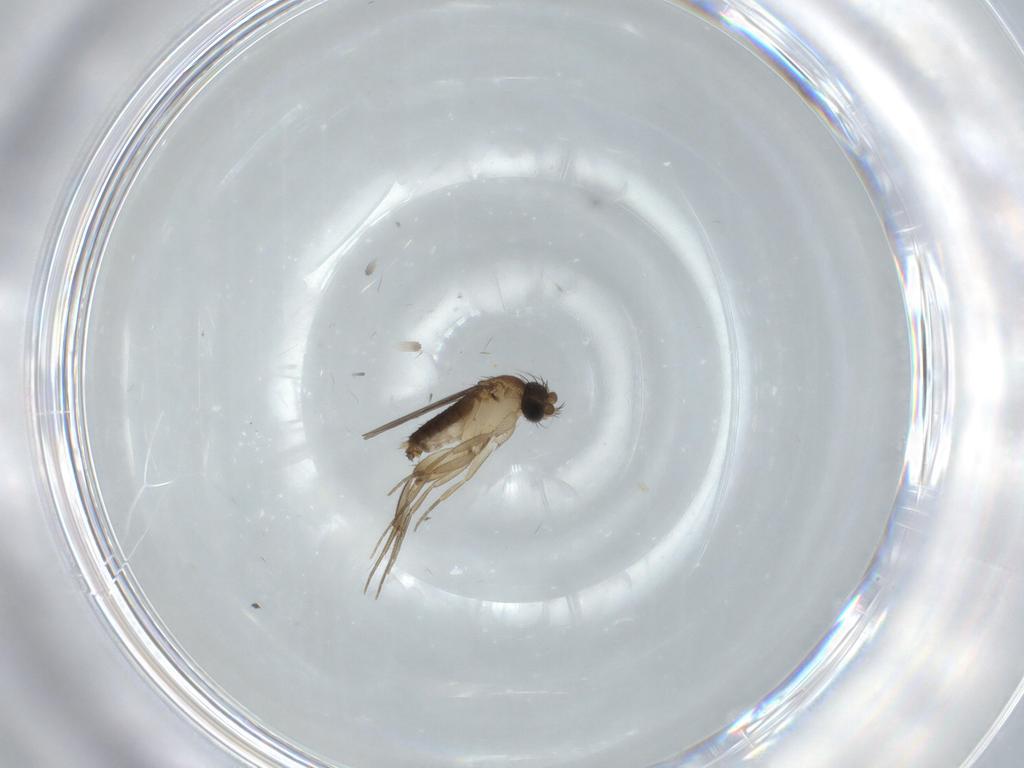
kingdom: Animalia
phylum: Arthropoda
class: Insecta
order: Diptera
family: Phoridae
